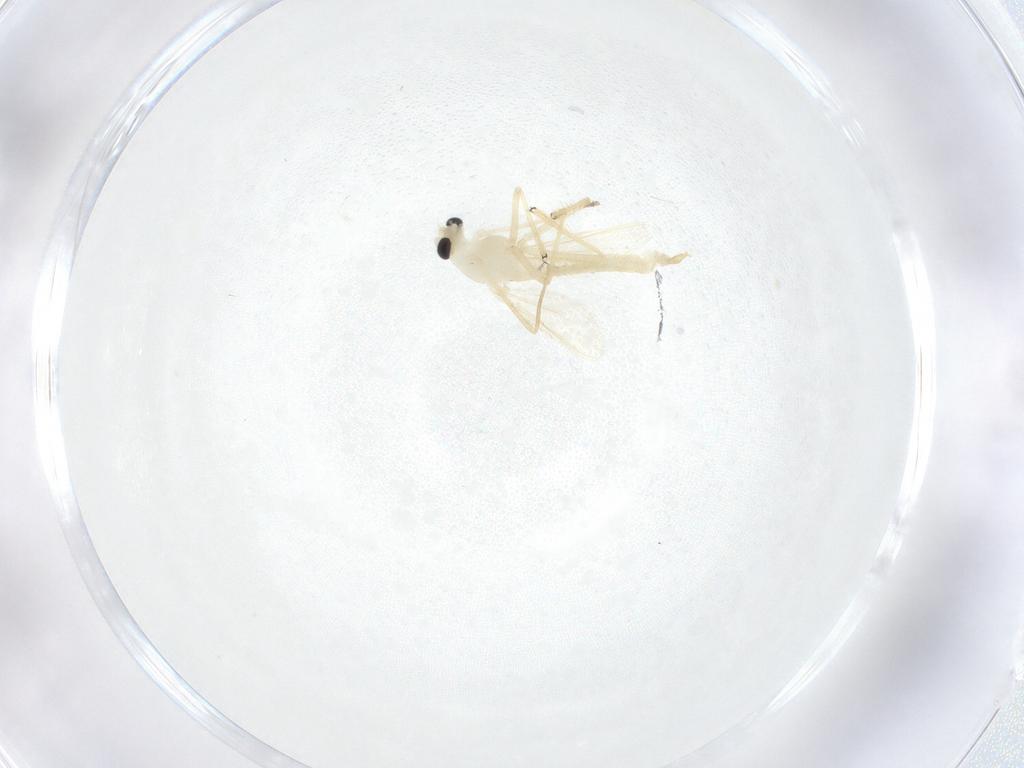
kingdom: Animalia
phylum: Arthropoda
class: Insecta
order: Diptera
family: Chironomidae
